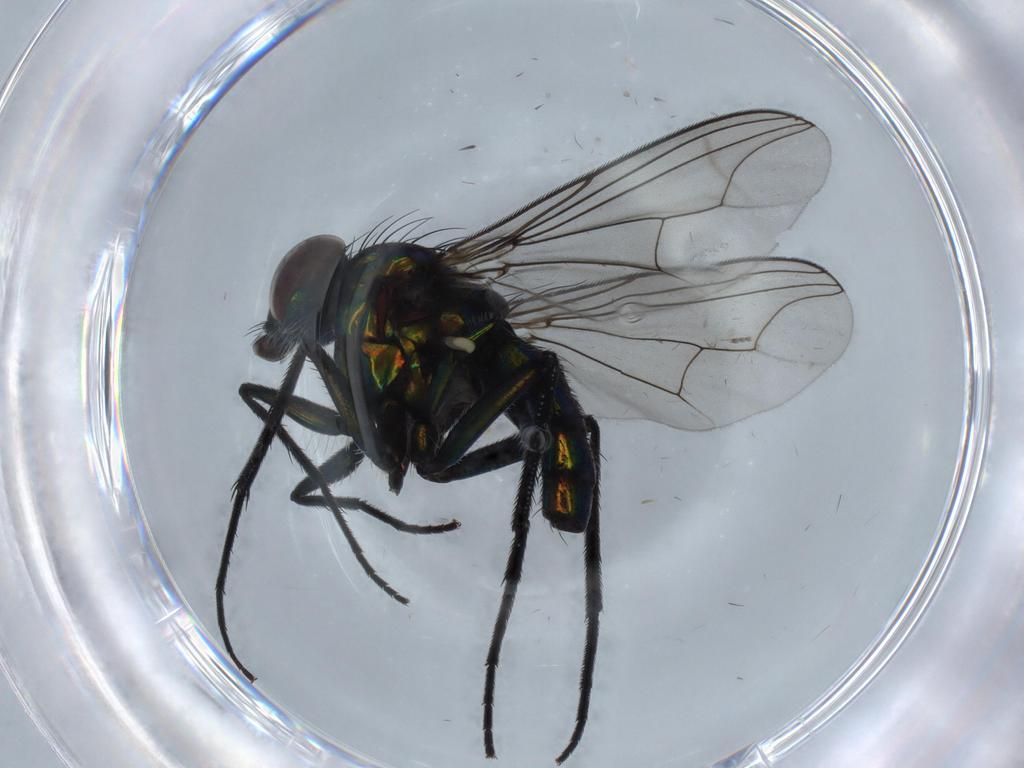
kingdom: Animalia
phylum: Arthropoda
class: Insecta
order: Diptera
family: Dolichopodidae
